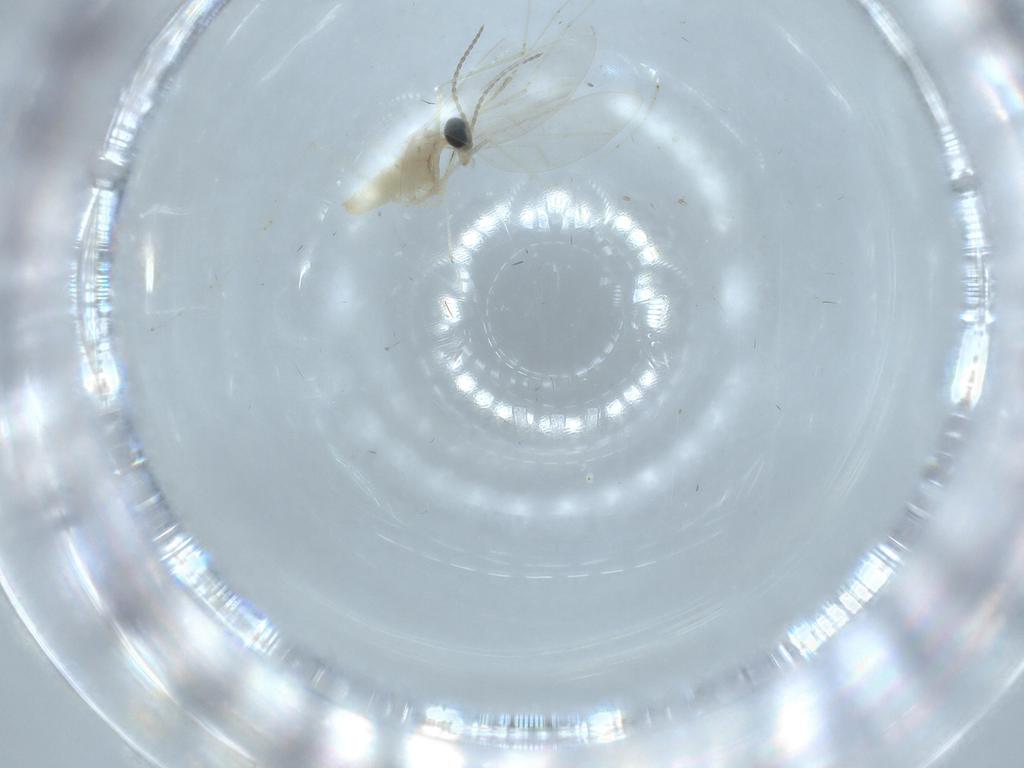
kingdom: Animalia
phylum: Arthropoda
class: Insecta
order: Diptera
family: Cecidomyiidae
